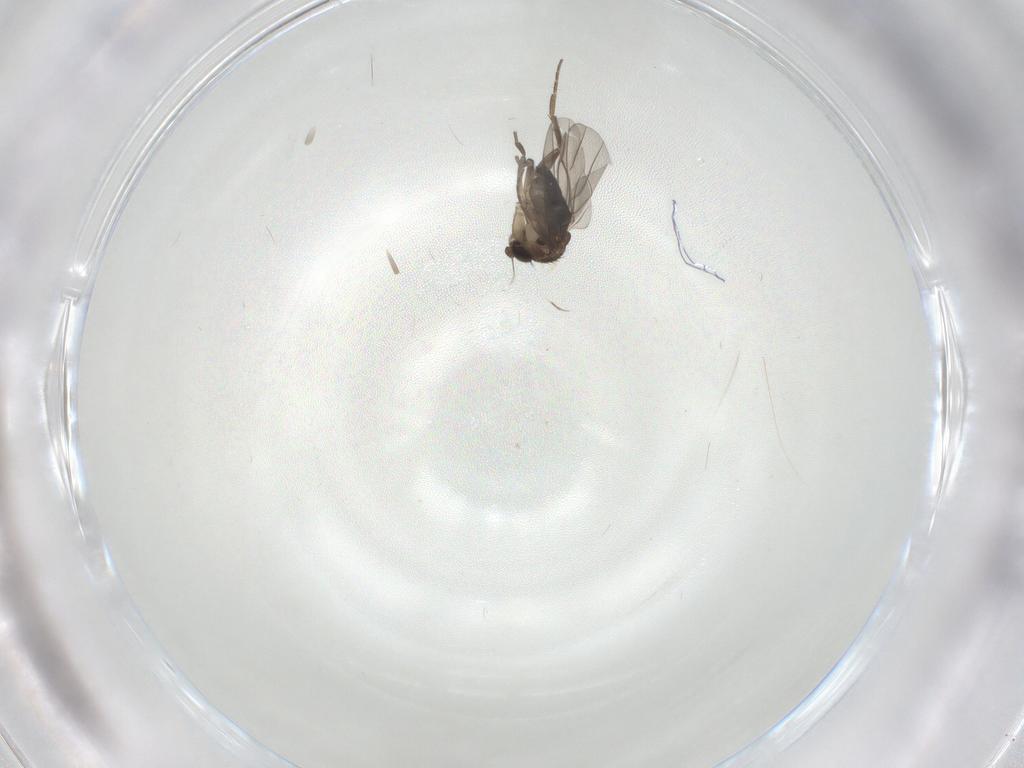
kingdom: Animalia
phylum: Arthropoda
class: Insecta
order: Diptera
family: Phoridae
